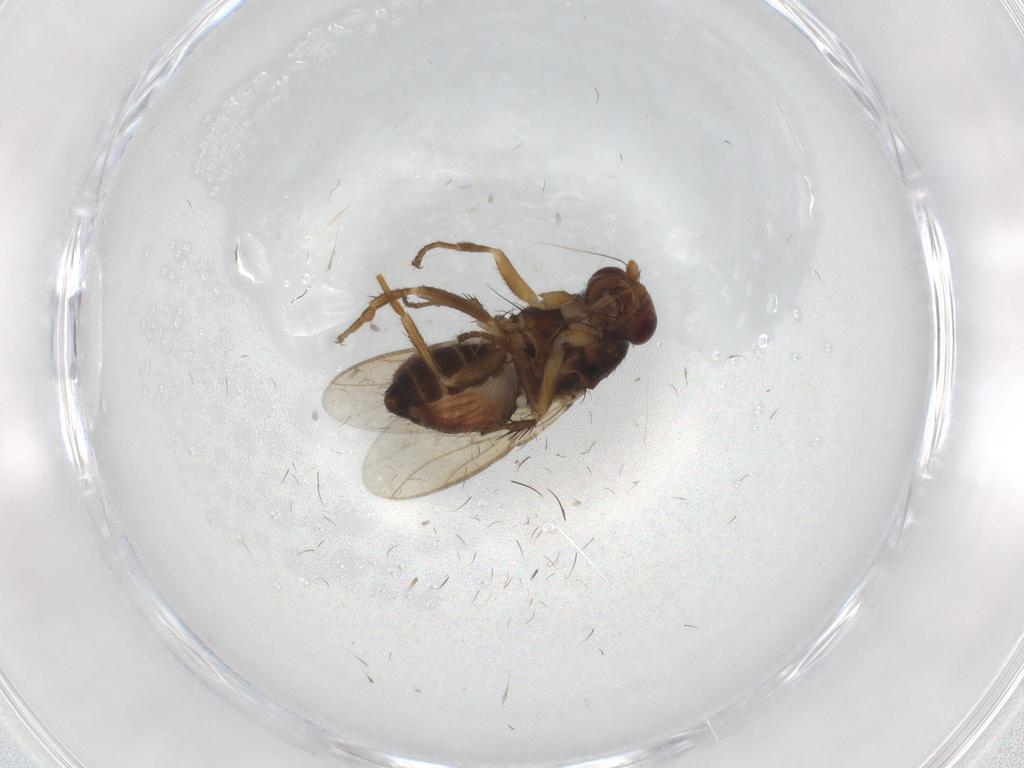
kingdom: Animalia
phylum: Arthropoda
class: Insecta
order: Diptera
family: Sphaeroceridae
